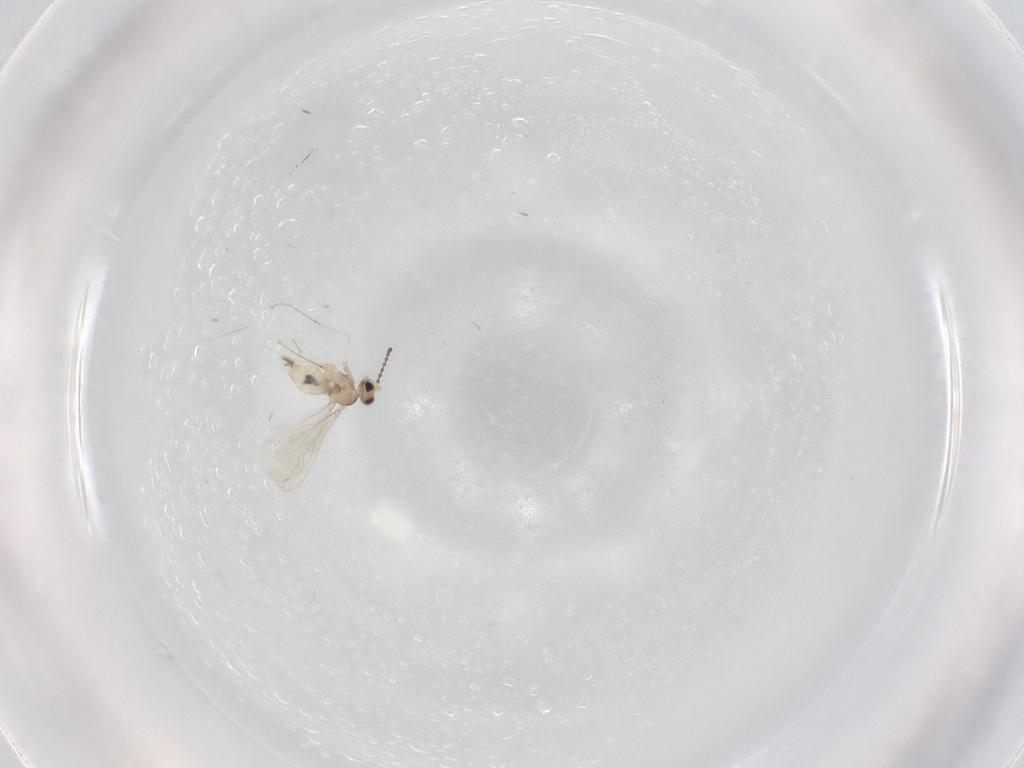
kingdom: Animalia
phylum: Arthropoda
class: Insecta
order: Diptera
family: Cecidomyiidae
